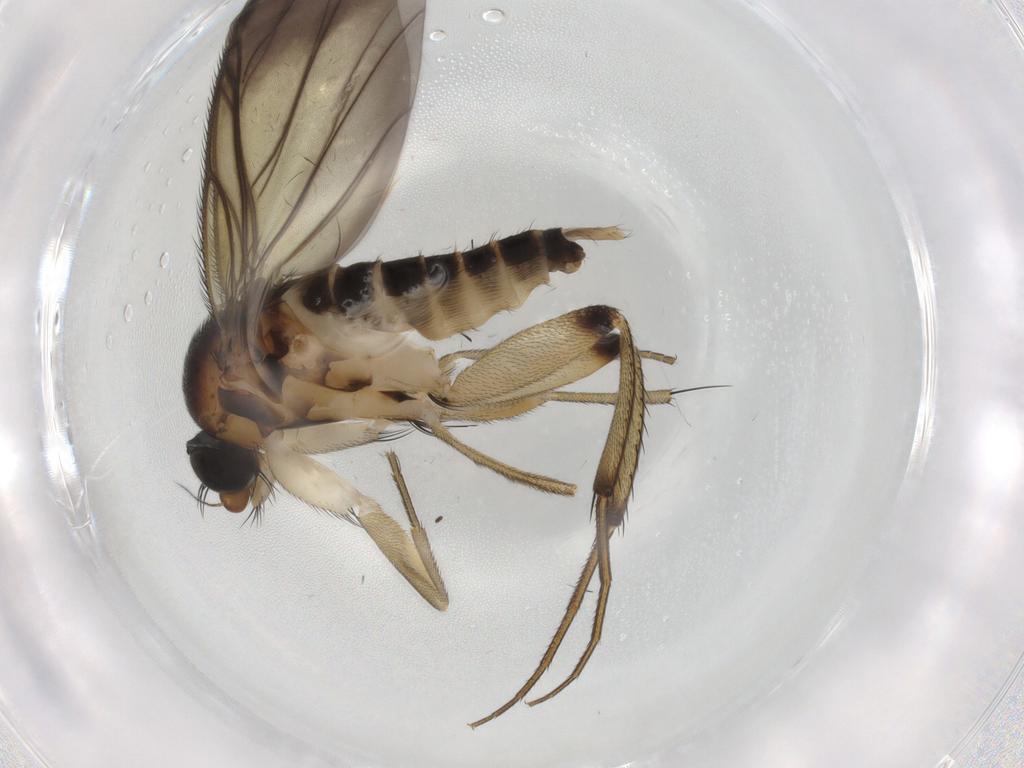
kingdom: Animalia
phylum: Arthropoda
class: Insecta
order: Diptera
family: Phoridae
